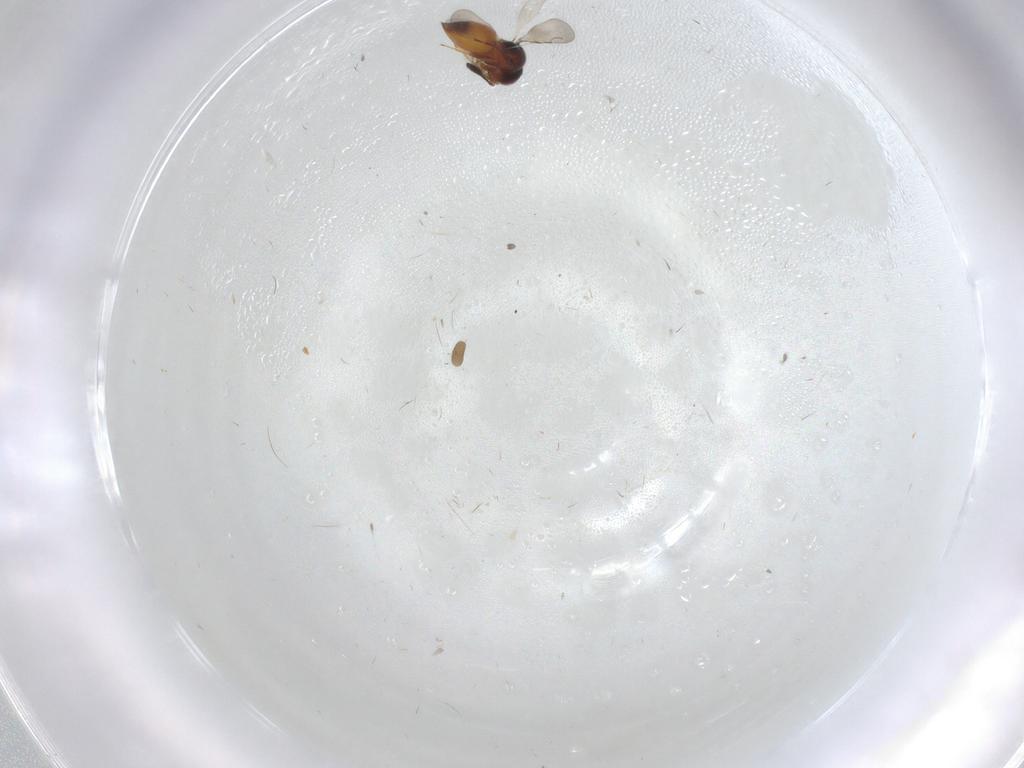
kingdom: Animalia
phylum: Arthropoda
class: Insecta
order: Hymenoptera
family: Ceraphronidae
